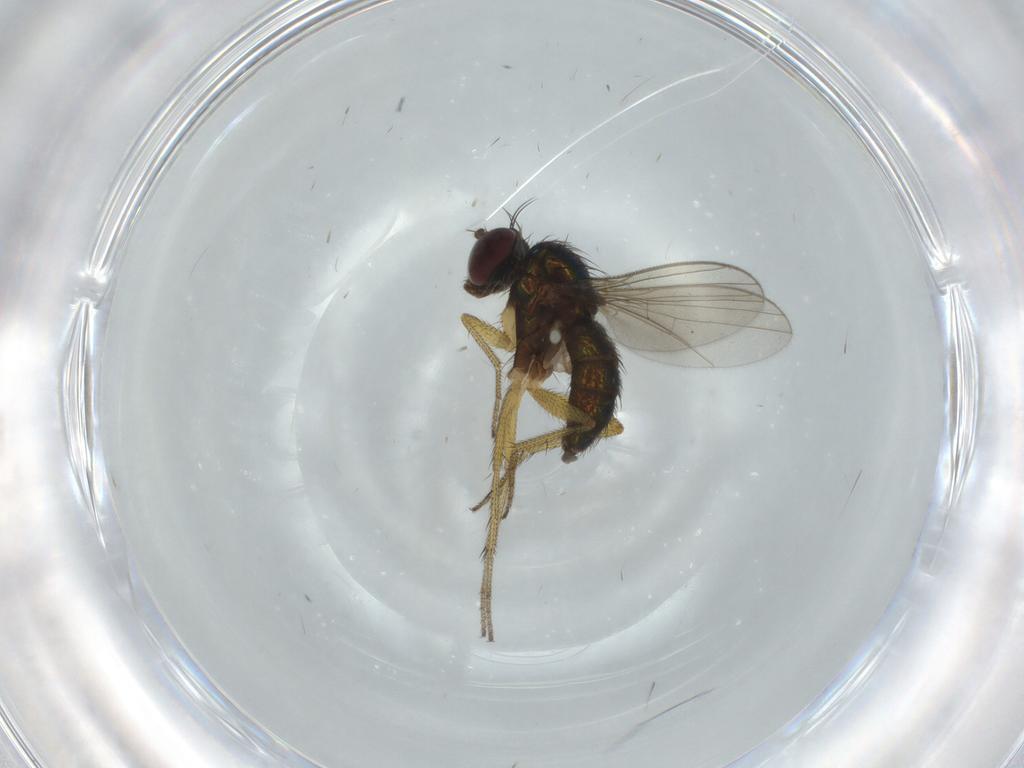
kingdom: Animalia
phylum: Arthropoda
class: Insecta
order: Diptera
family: Dolichopodidae
